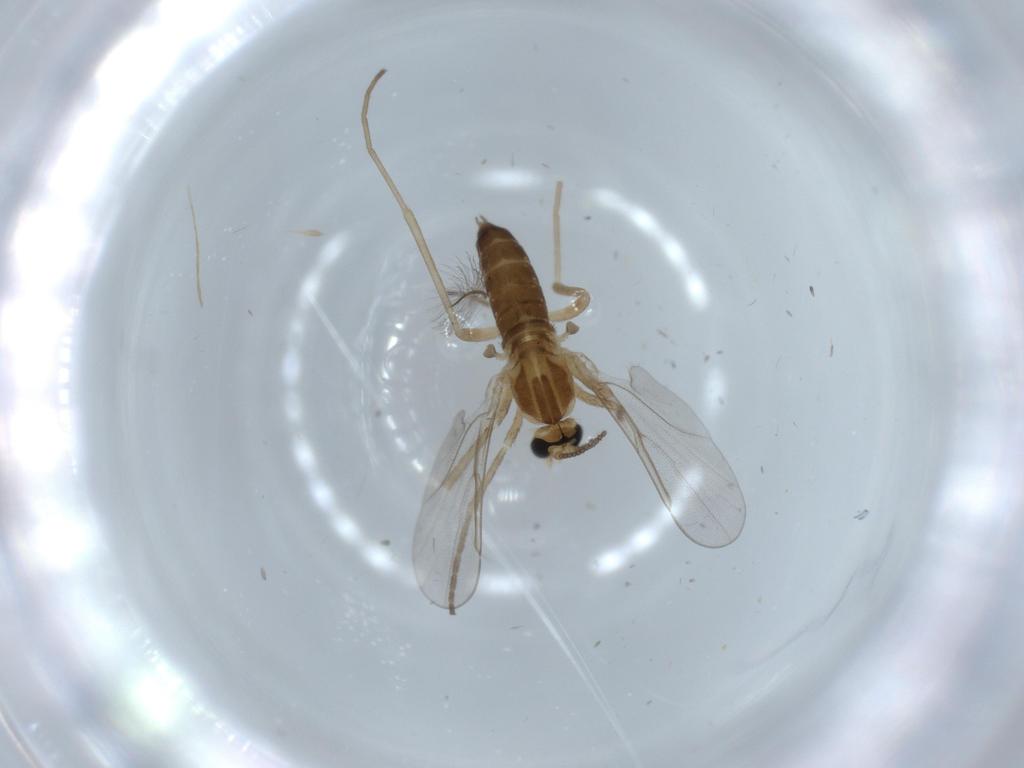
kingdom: Animalia
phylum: Arthropoda
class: Insecta
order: Diptera
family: Cecidomyiidae
